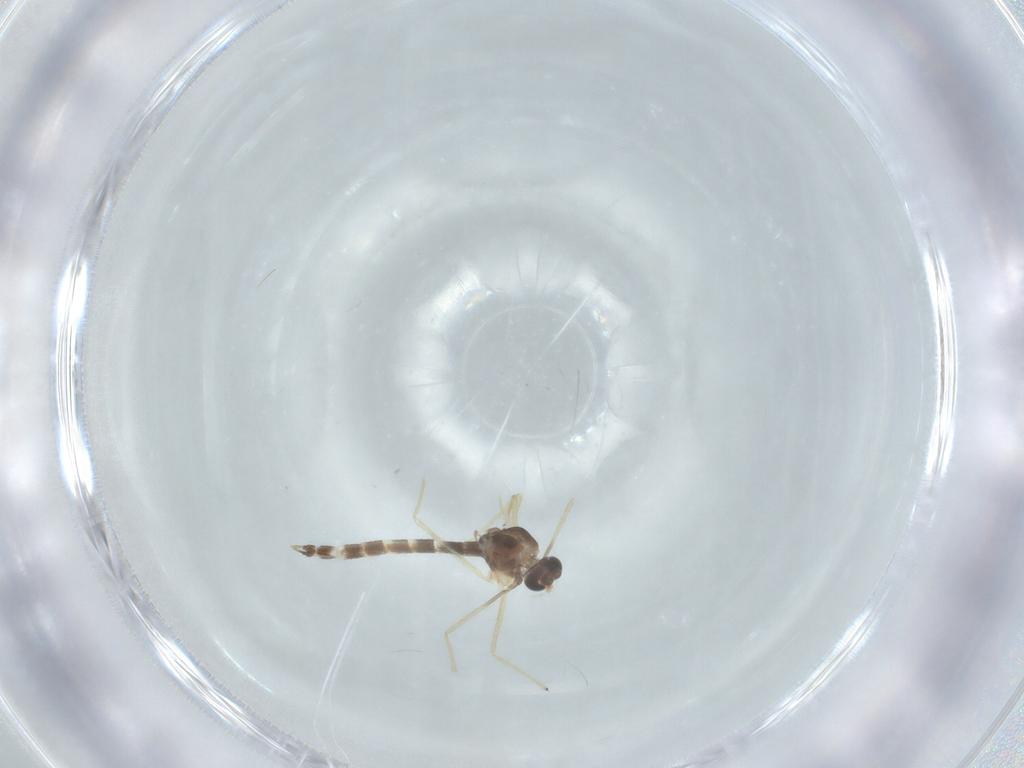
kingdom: Animalia
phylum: Arthropoda
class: Insecta
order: Diptera
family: Chironomidae
